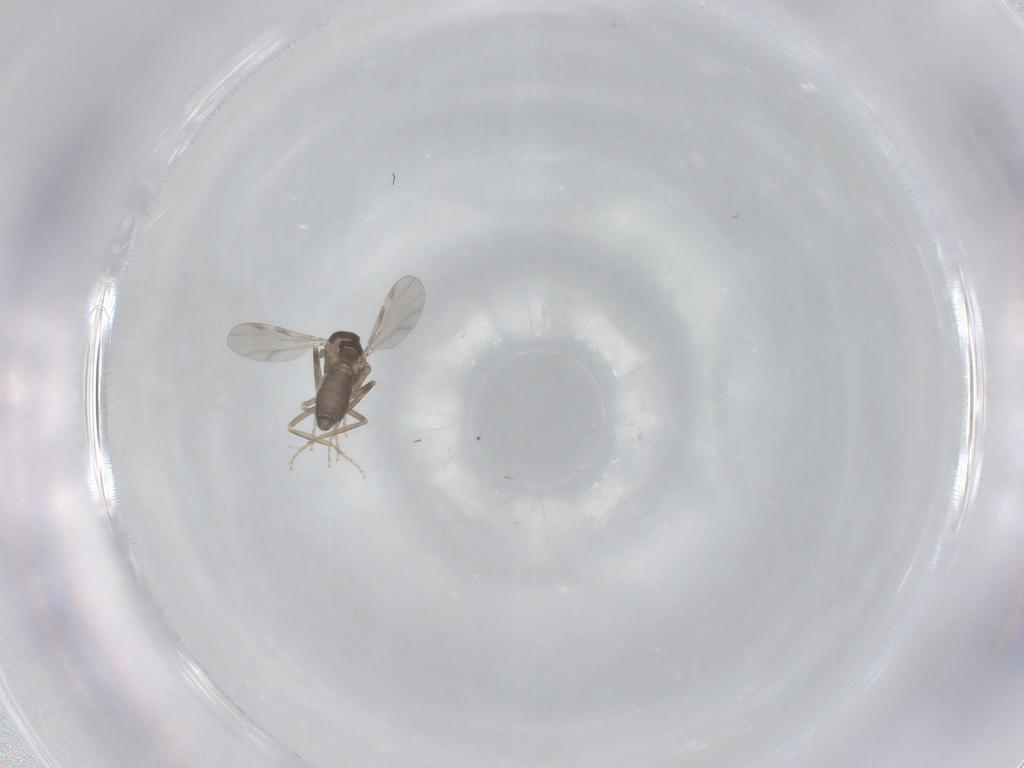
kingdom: Animalia
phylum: Arthropoda
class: Insecta
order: Diptera
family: Ceratopogonidae
